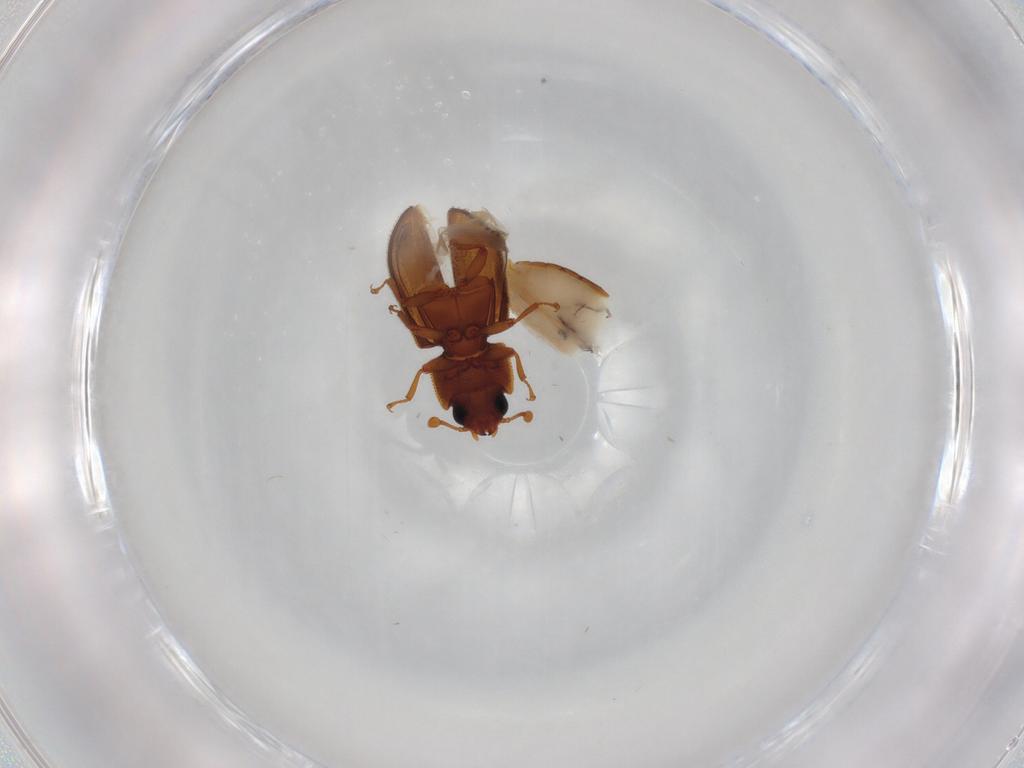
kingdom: Animalia
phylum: Arthropoda
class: Insecta
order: Coleoptera
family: Zopheridae
